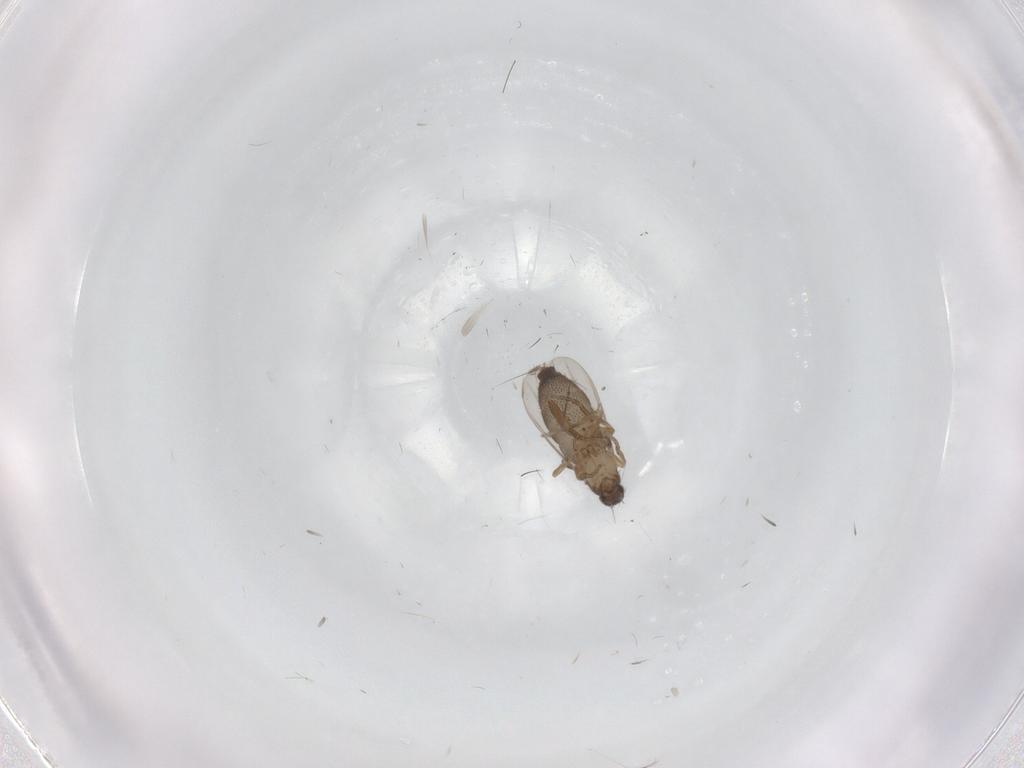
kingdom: Animalia
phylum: Arthropoda
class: Insecta
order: Diptera
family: Phoridae
